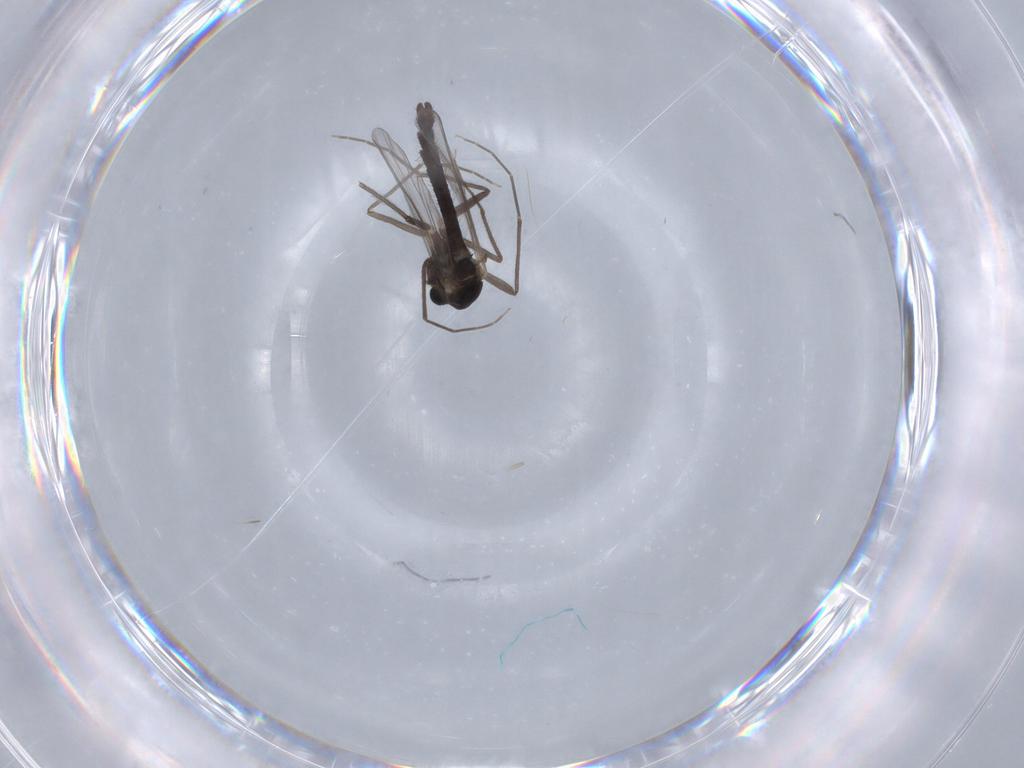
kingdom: Animalia
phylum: Arthropoda
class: Insecta
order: Diptera
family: Chironomidae
